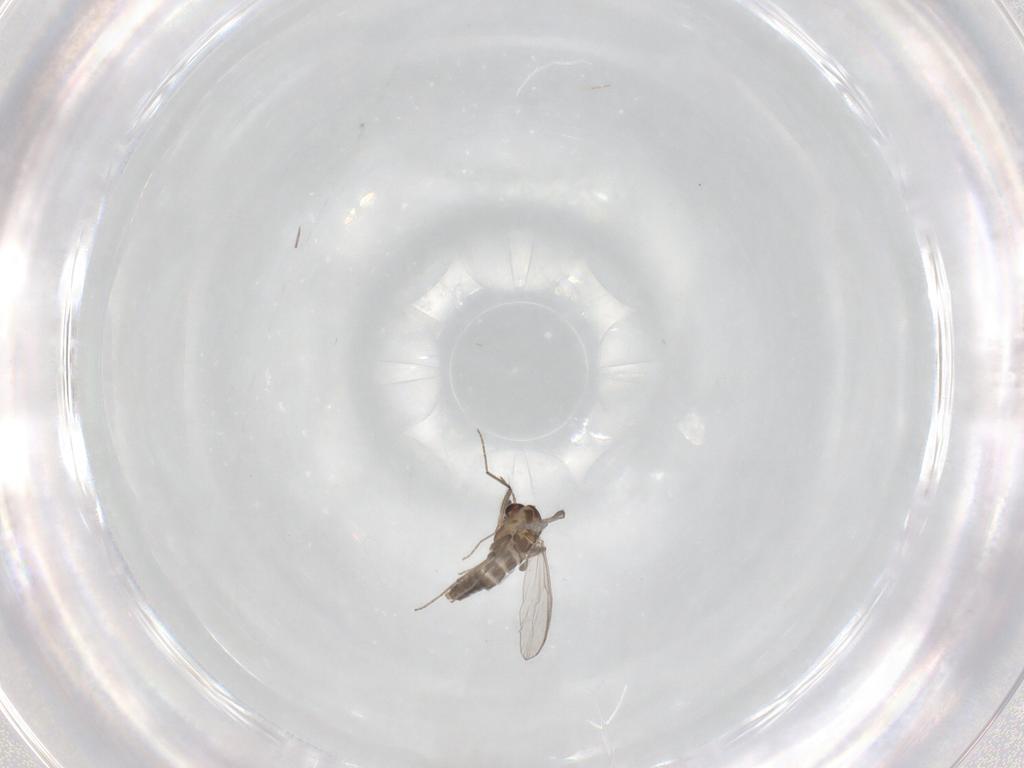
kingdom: Animalia
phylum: Arthropoda
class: Insecta
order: Diptera
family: Chironomidae
